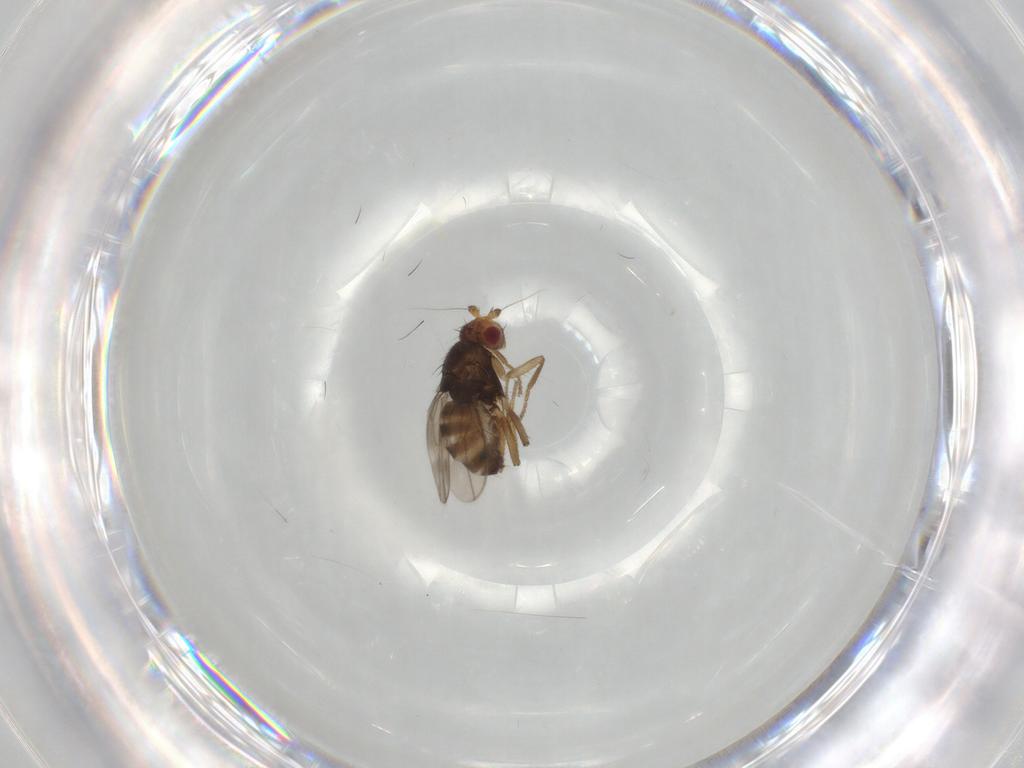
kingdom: Animalia
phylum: Arthropoda
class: Insecta
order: Diptera
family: Sphaeroceridae
